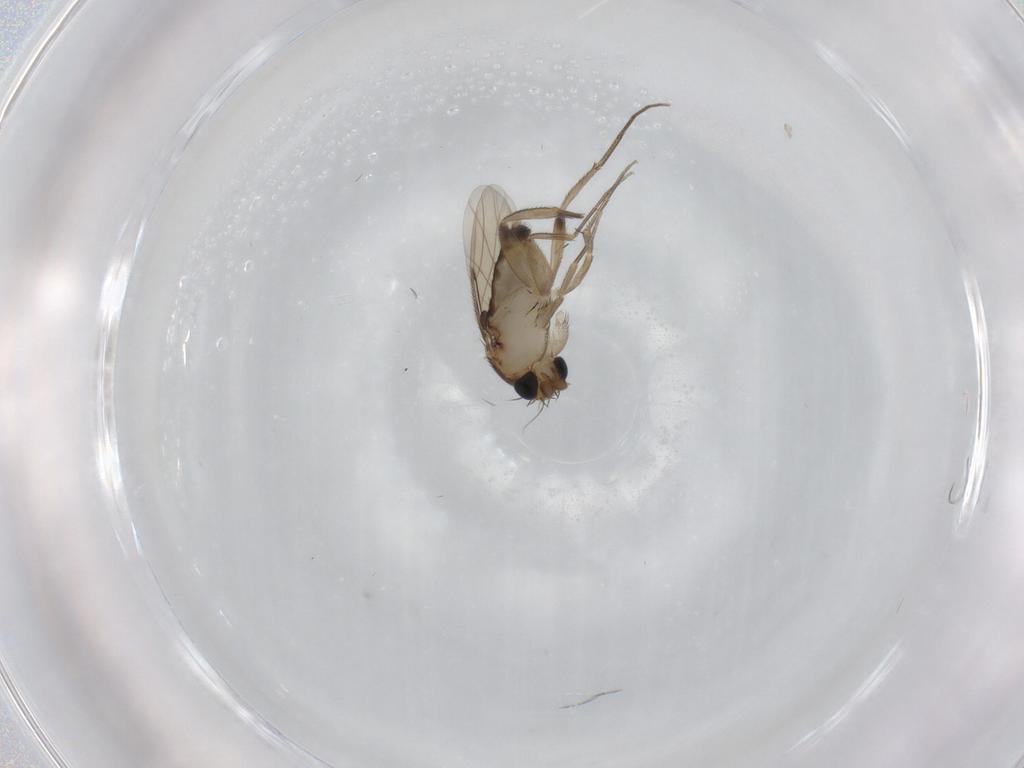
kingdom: Animalia
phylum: Arthropoda
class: Insecta
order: Diptera
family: Phoridae
